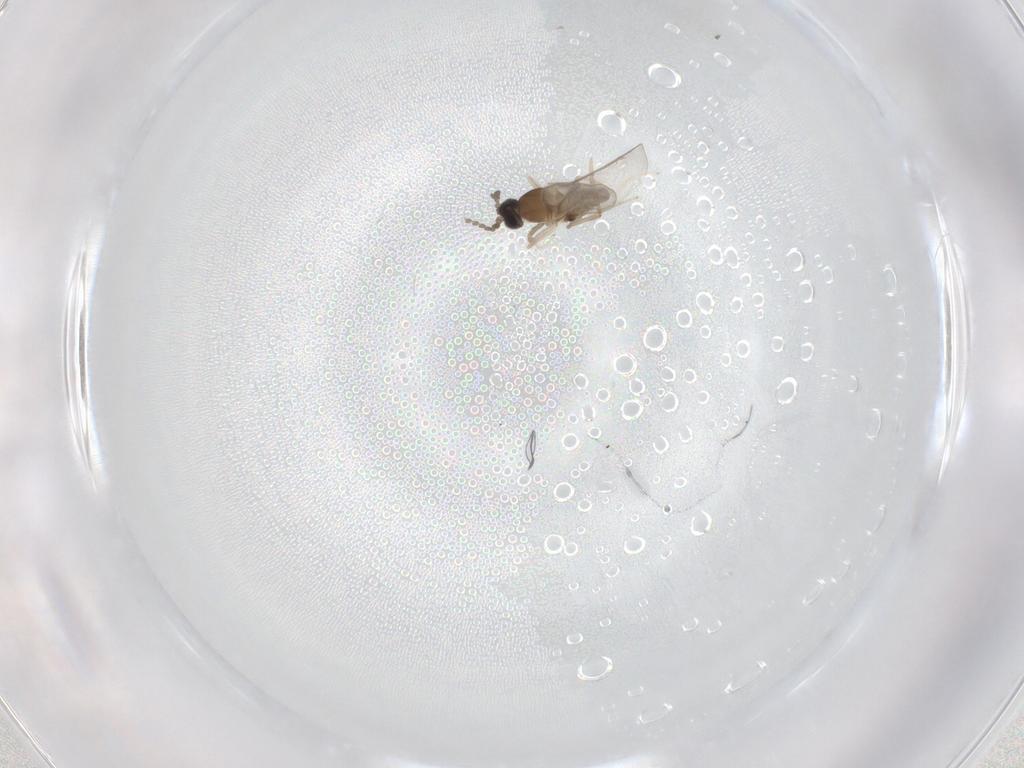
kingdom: Animalia
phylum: Arthropoda
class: Insecta
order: Diptera
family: Cecidomyiidae
